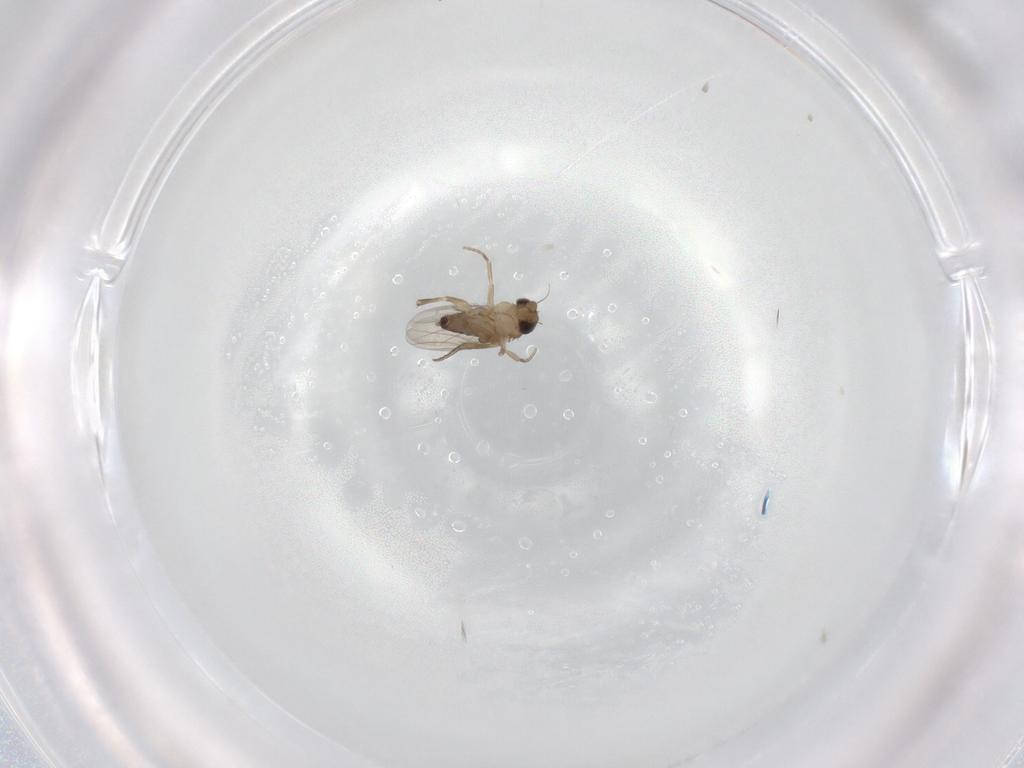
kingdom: Animalia
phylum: Arthropoda
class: Insecta
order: Diptera
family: Phoridae
